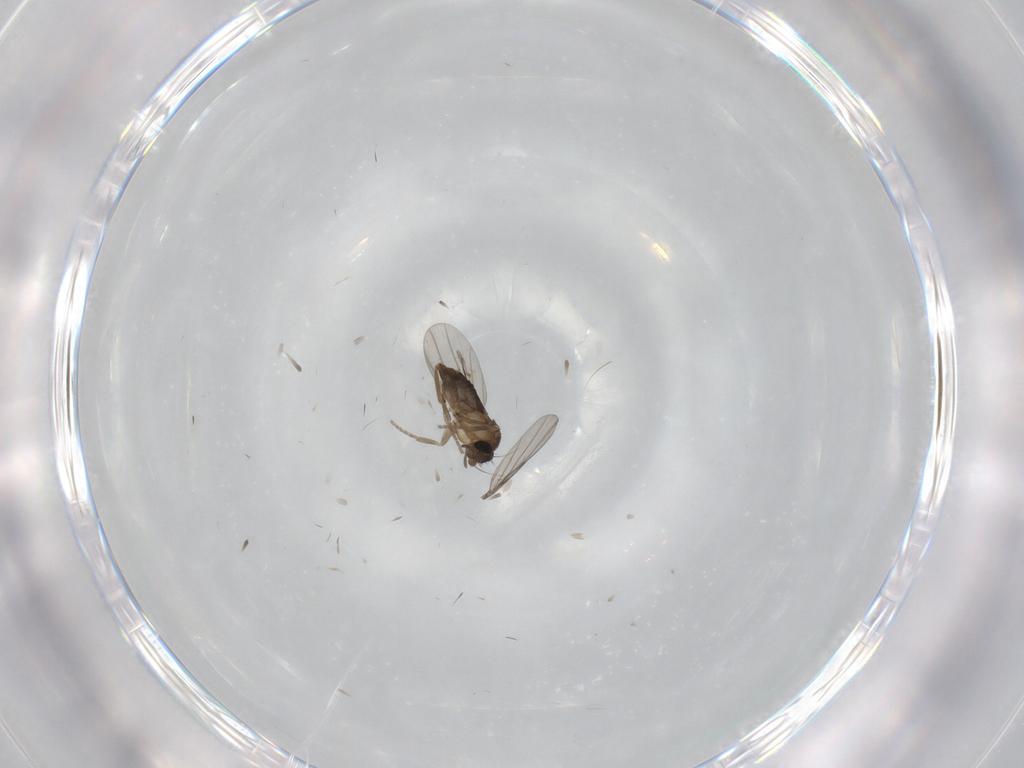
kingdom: Animalia
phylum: Arthropoda
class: Insecta
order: Diptera
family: Phoridae
